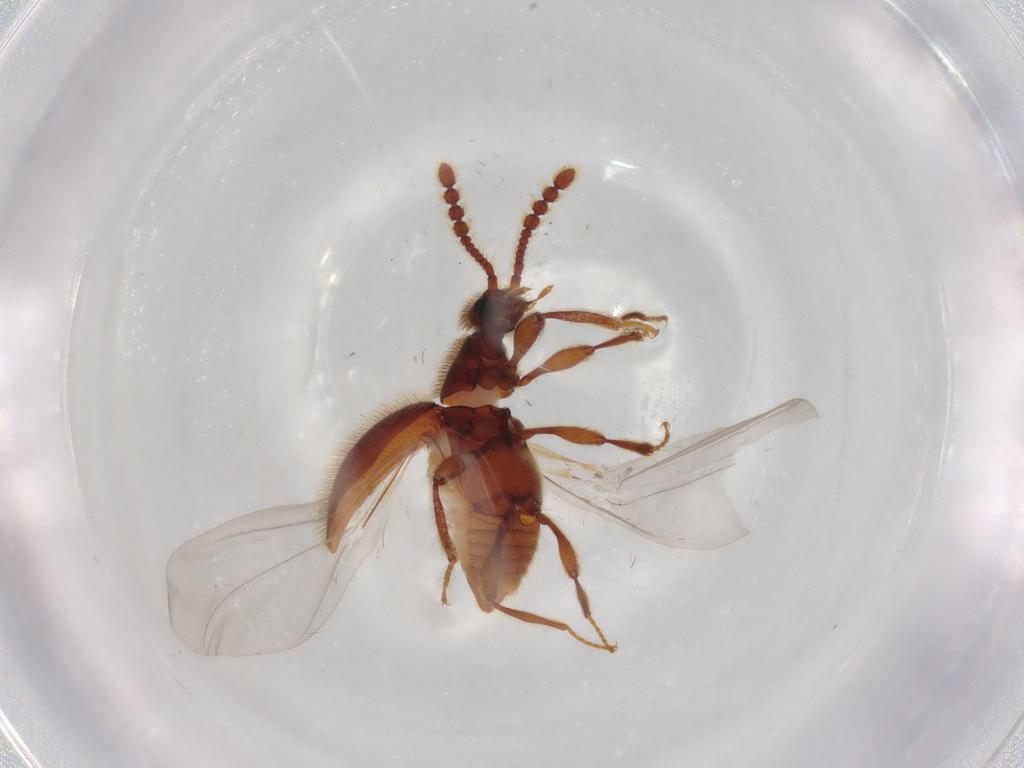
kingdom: Animalia
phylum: Arthropoda
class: Insecta
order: Coleoptera
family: Staphylinidae
